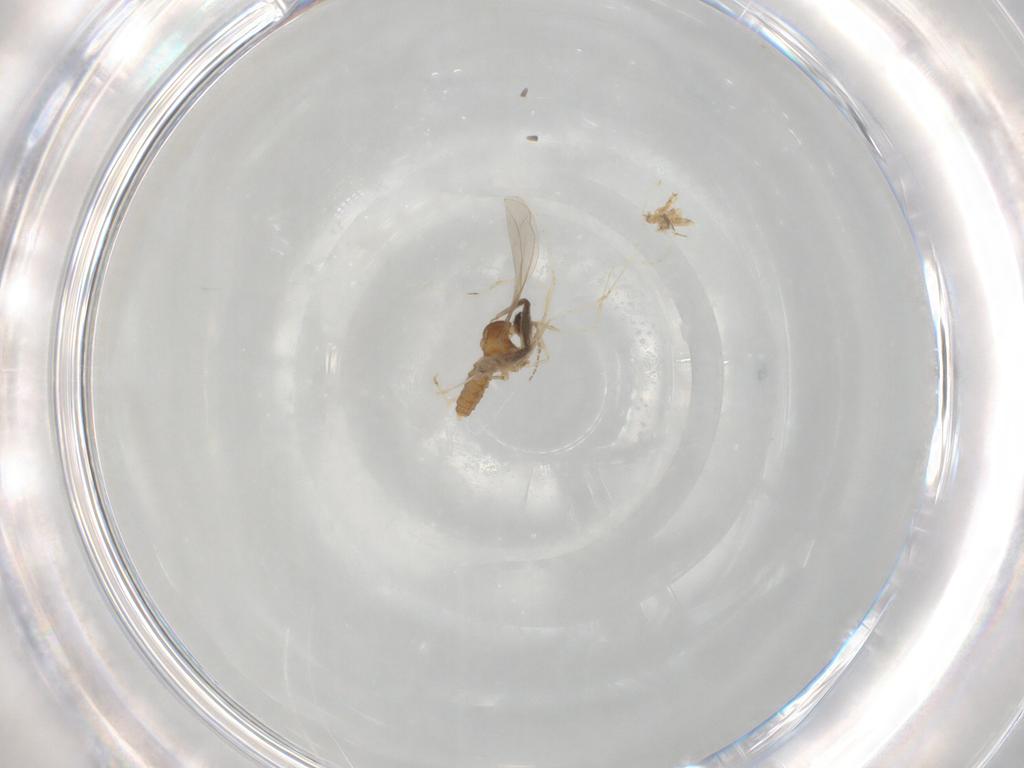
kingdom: Animalia
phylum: Arthropoda
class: Insecta
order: Diptera
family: Cecidomyiidae
